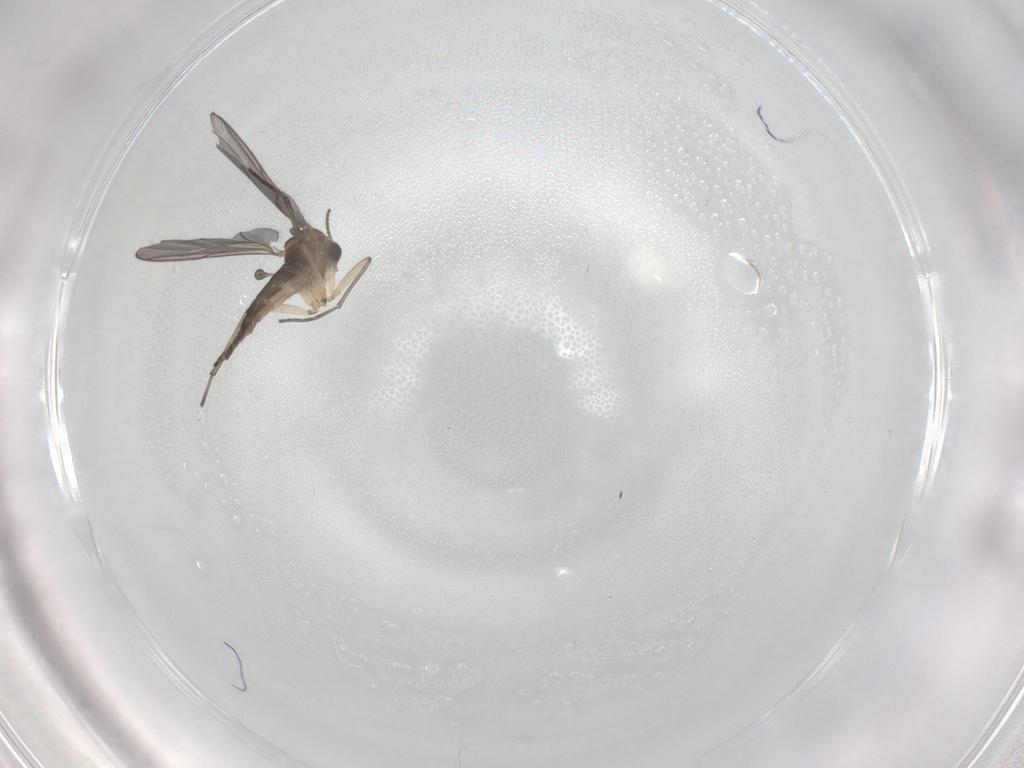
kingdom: Animalia
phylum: Arthropoda
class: Insecta
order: Diptera
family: Sciaridae
